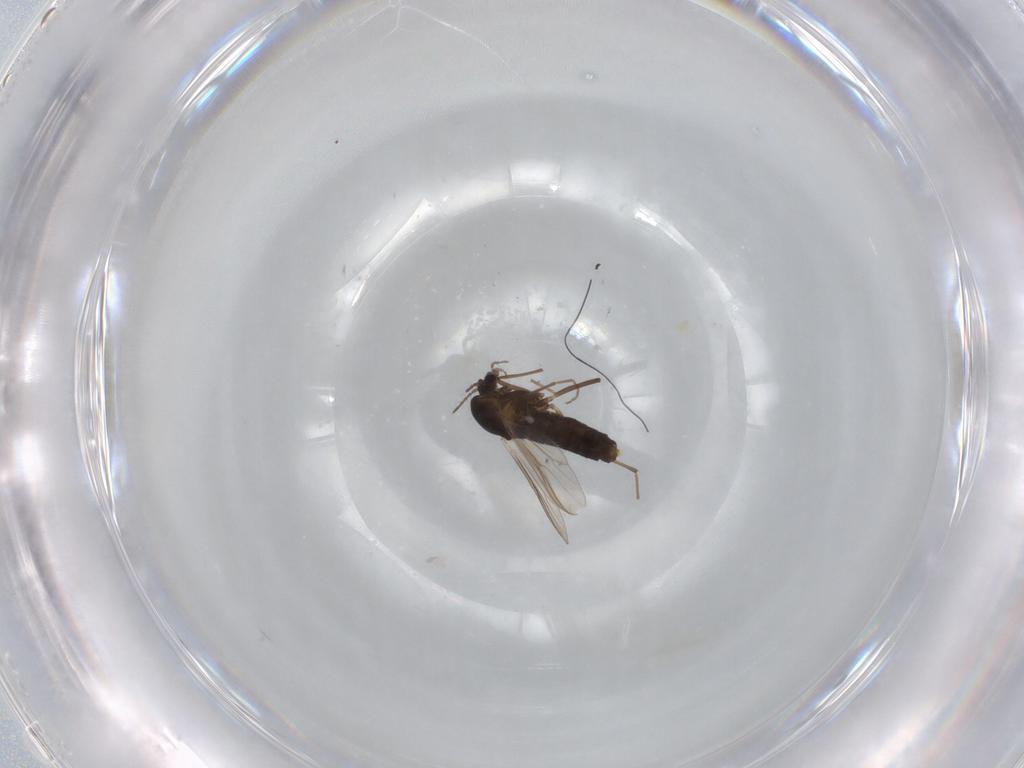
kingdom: Animalia
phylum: Arthropoda
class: Insecta
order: Diptera
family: Chironomidae
